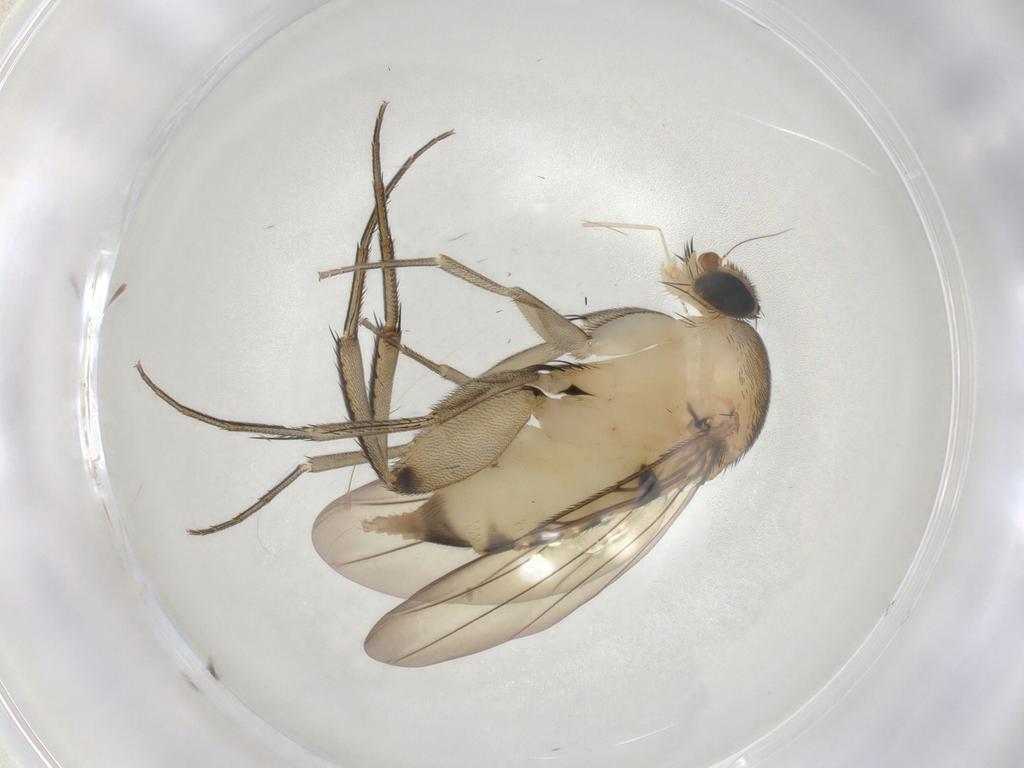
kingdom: Animalia
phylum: Arthropoda
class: Insecta
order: Diptera
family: Phoridae
